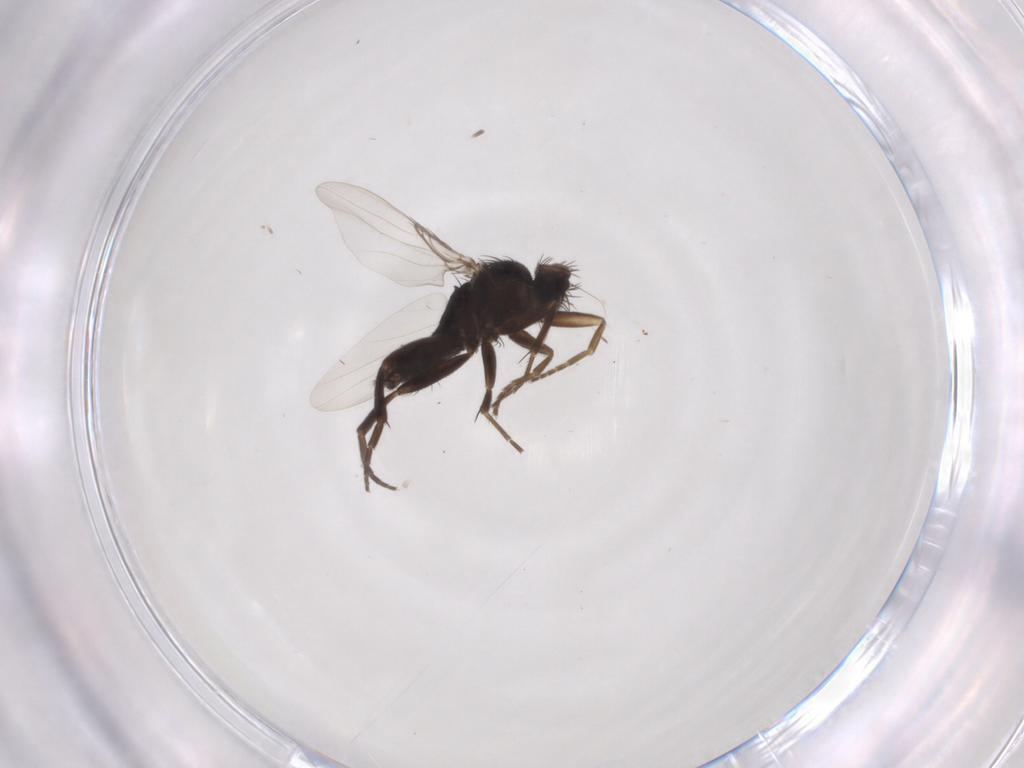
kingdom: Animalia
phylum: Arthropoda
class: Insecta
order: Diptera
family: Phoridae
